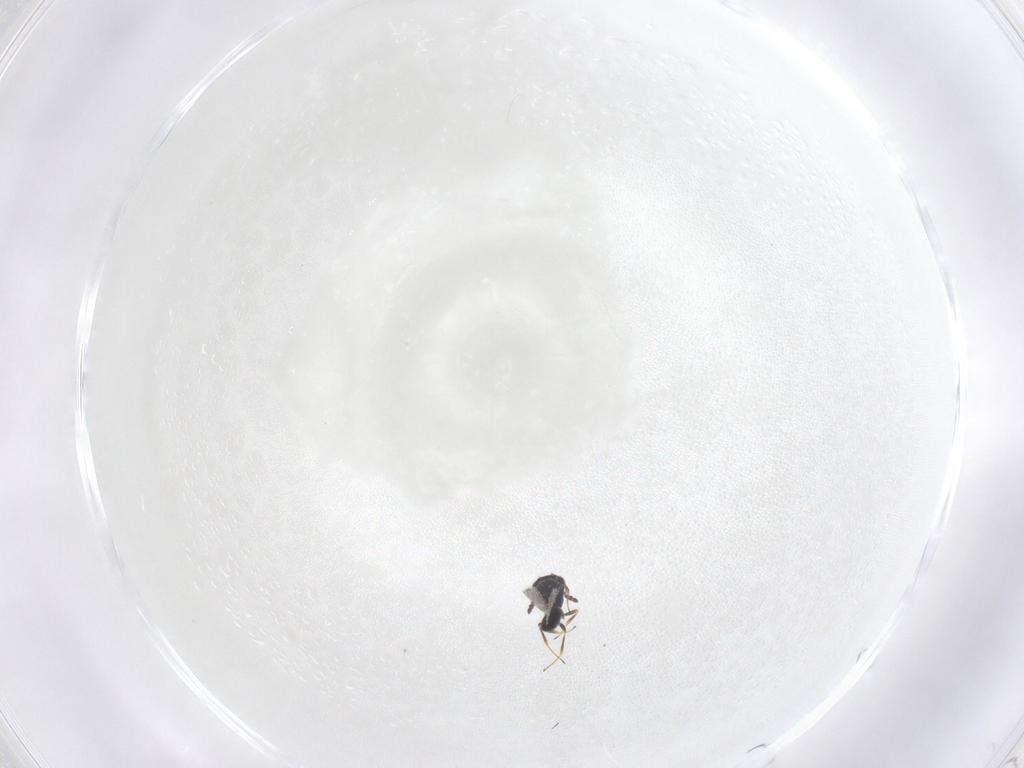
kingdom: Animalia
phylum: Arthropoda
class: Insecta
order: Hymenoptera
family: Scelionidae
